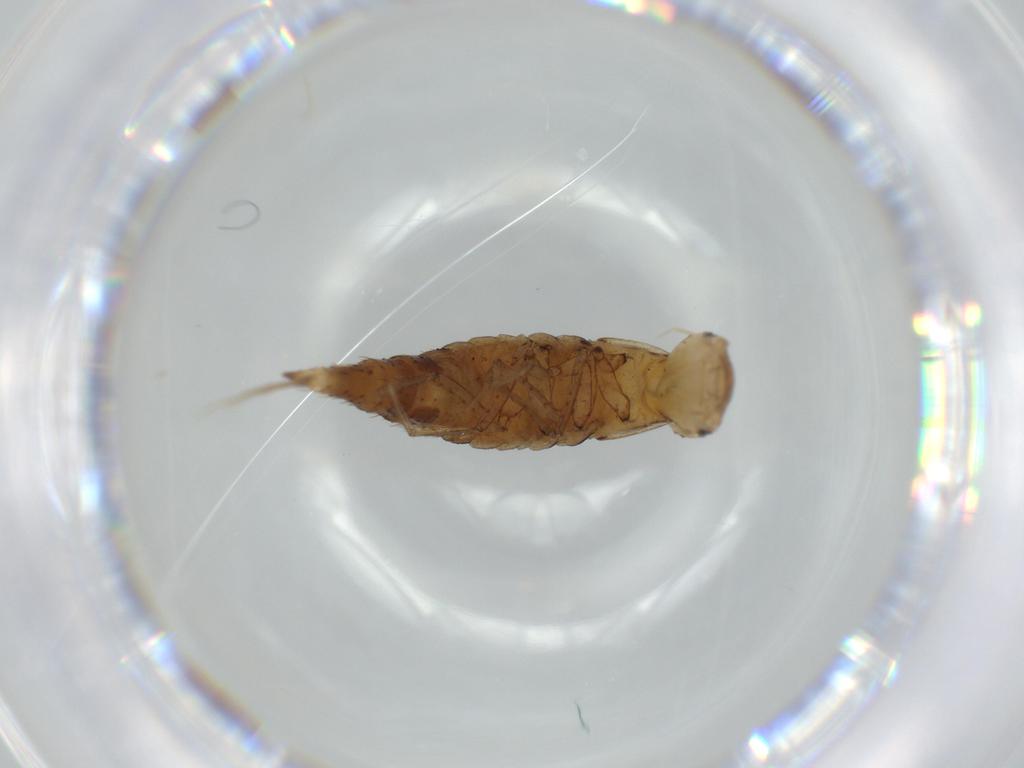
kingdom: Animalia
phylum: Arthropoda
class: Insecta
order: Coleoptera
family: Dytiscidae
